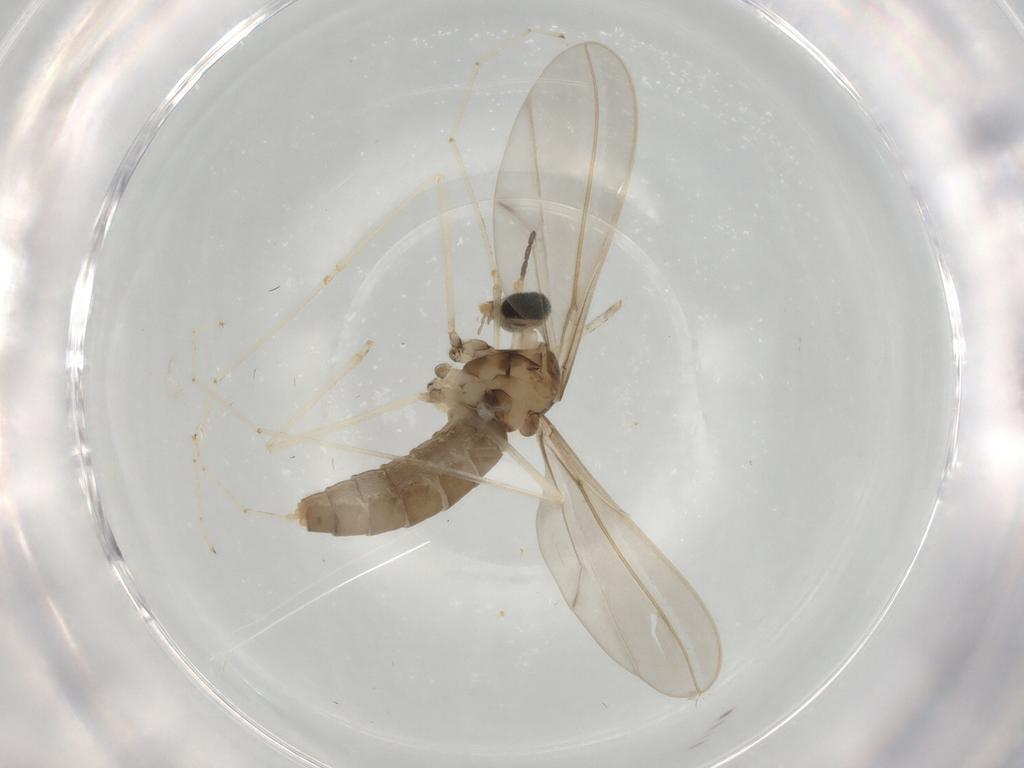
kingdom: Animalia
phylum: Arthropoda
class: Insecta
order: Diptera
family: Cecidomyiidae
